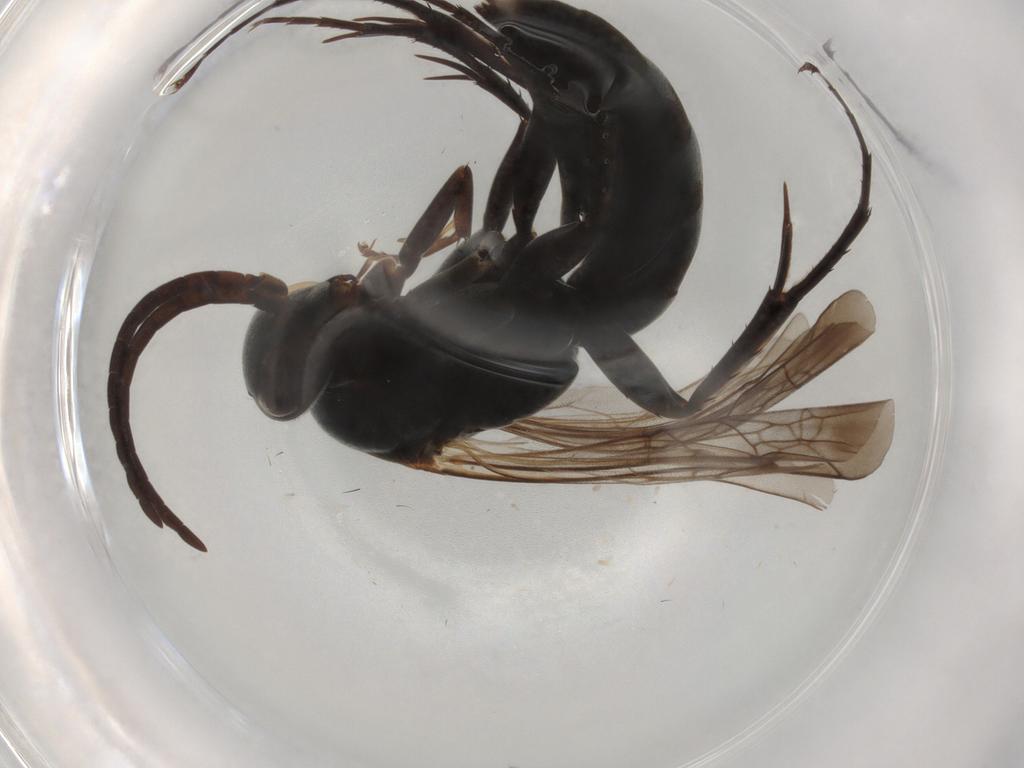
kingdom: Animalia
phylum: Arthropoda
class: Insecta
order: Hymenoptera
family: Pompilidae
